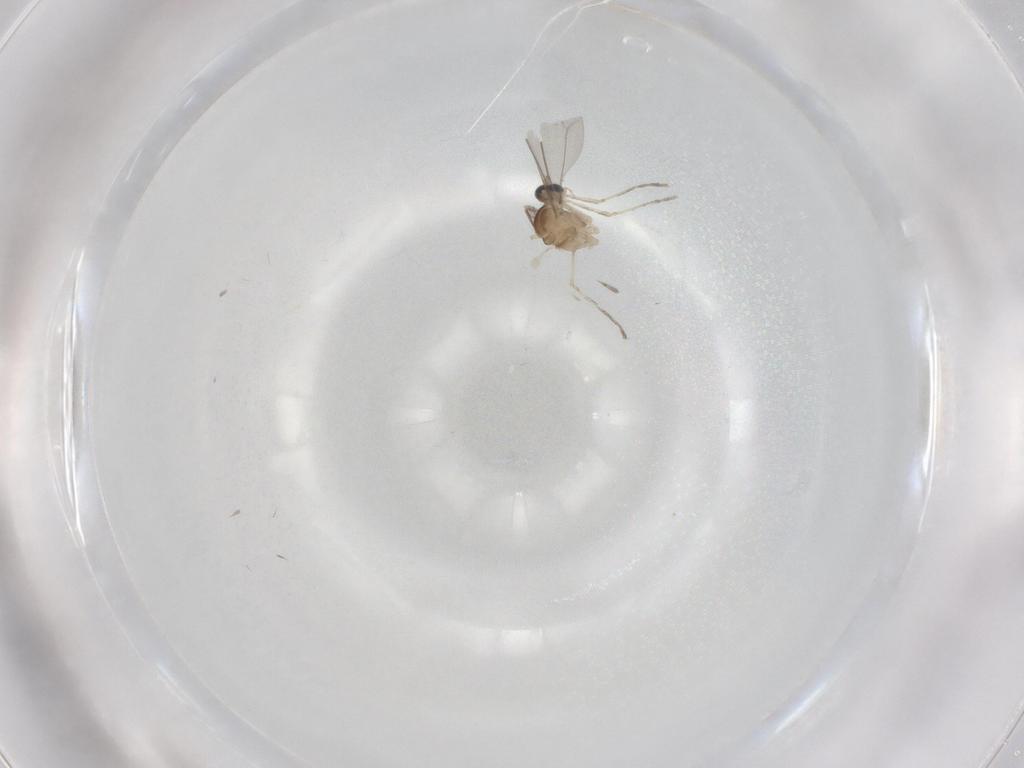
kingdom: Animalia
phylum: Arthropoda
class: Insecta
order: Diptera
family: Cecidomyiidae
